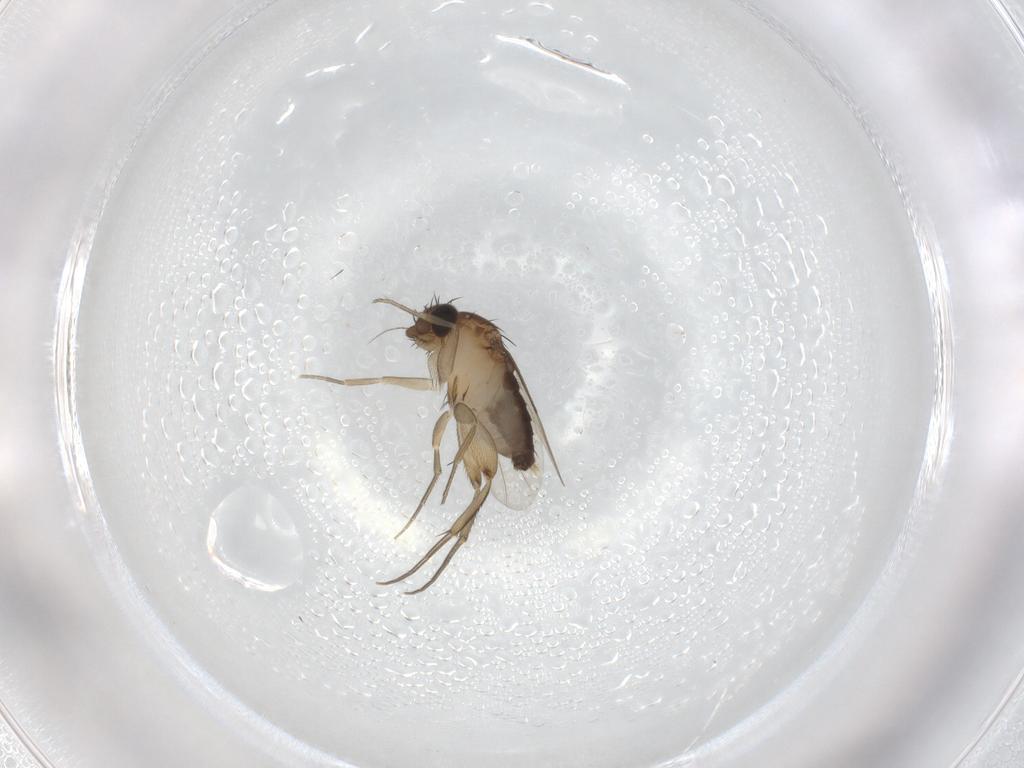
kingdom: Animalia
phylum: Arthropoda
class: Insecta
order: Diptera
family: Phoridae
